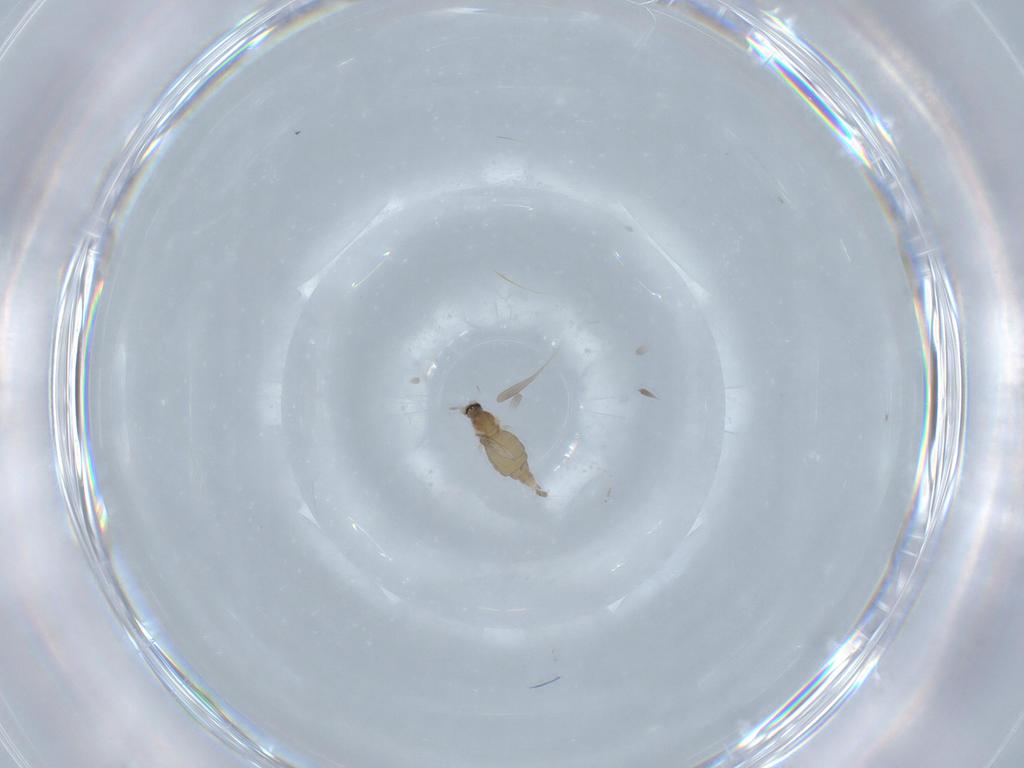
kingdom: Animalia
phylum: Arthropoda
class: Insecta
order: Diptera
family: Cecidomyiidae
